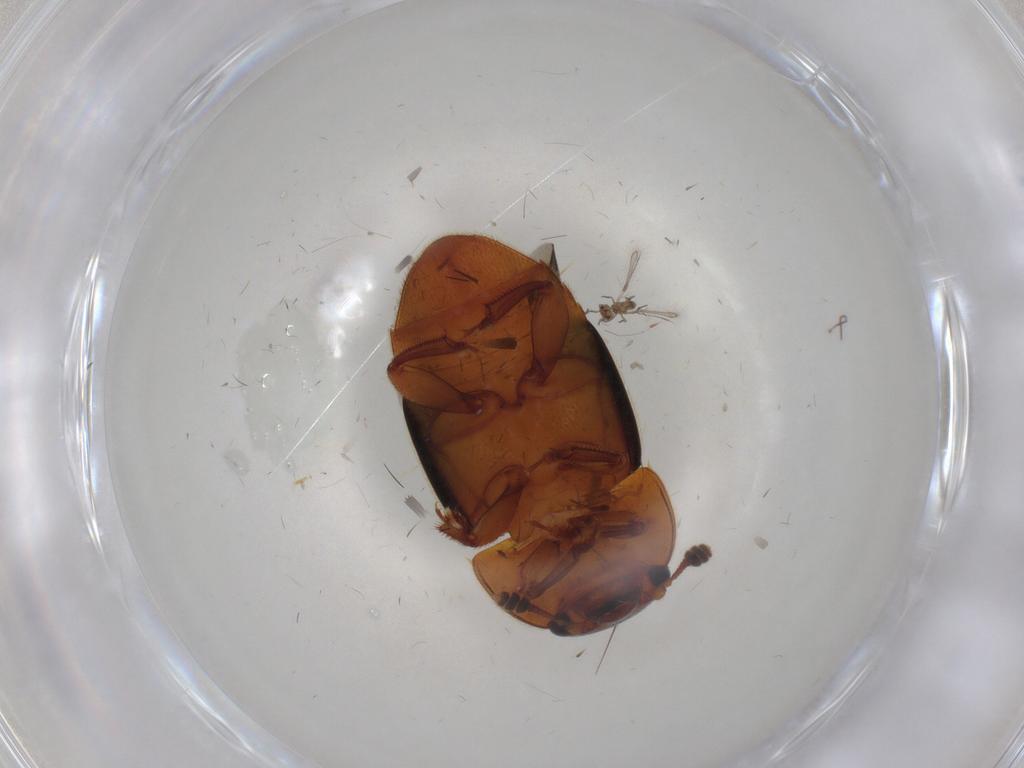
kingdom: Animalia
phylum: Arthropoda
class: Insecta
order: Coleoptera
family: Nitidulidae
